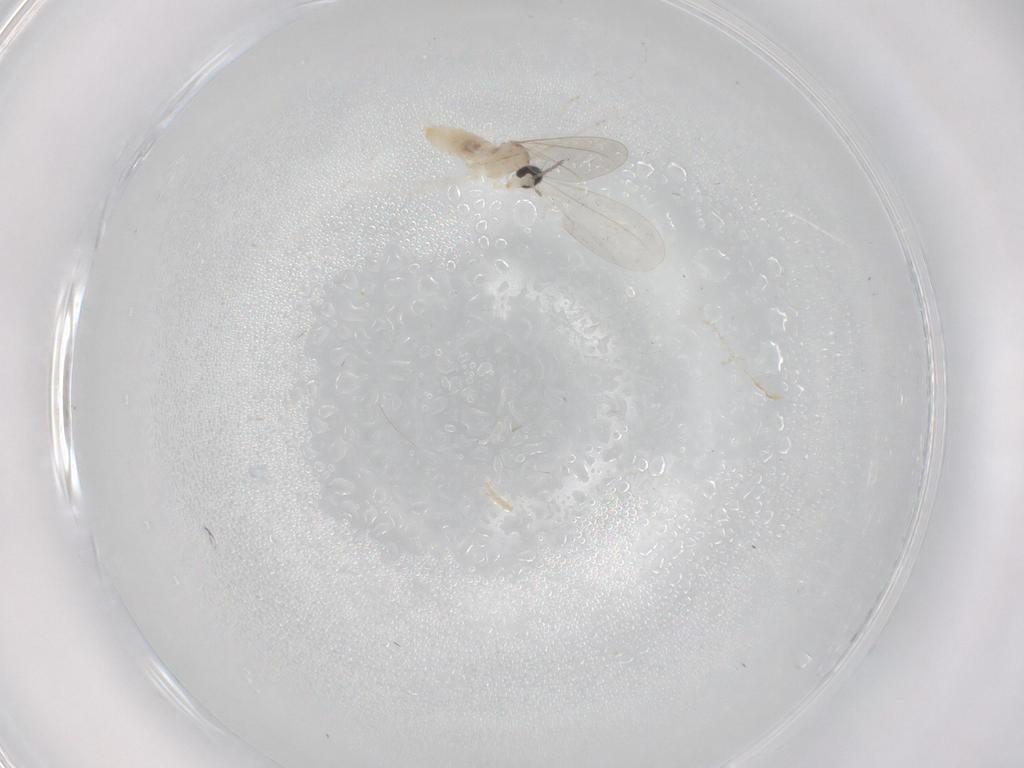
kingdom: Animalia
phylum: Arthropoda
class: Insecta
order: Diptera
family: Cecidomyiidae
